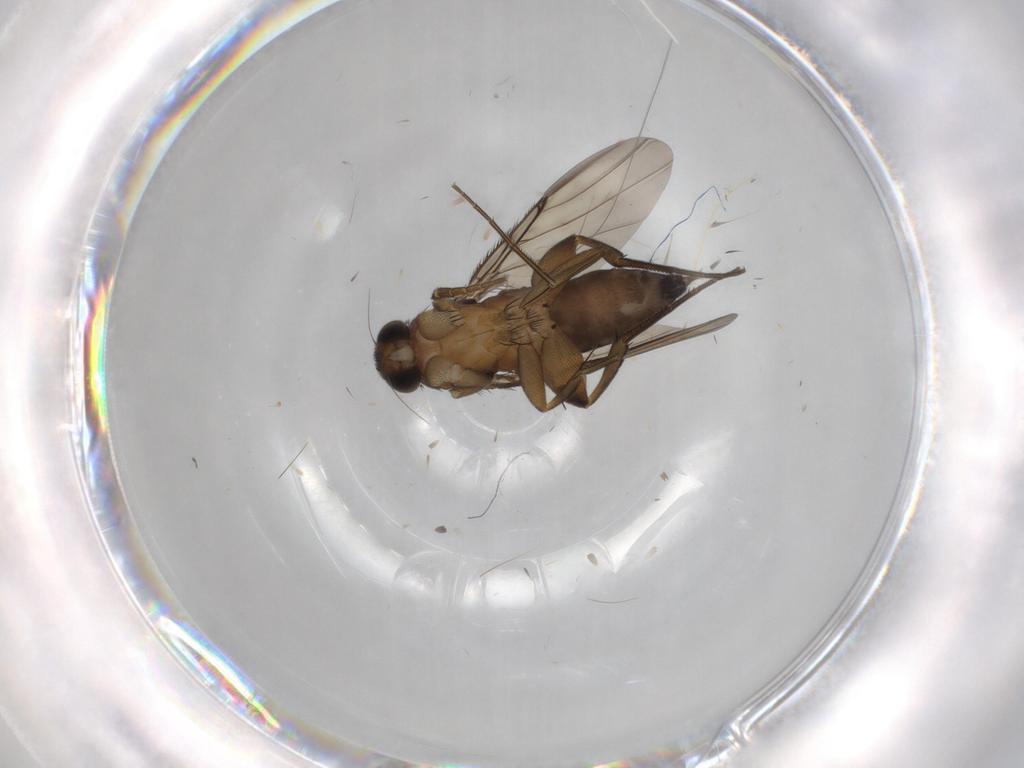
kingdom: Animalia
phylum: Arthropoda
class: Insecta
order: Diptera
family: Phoridae
